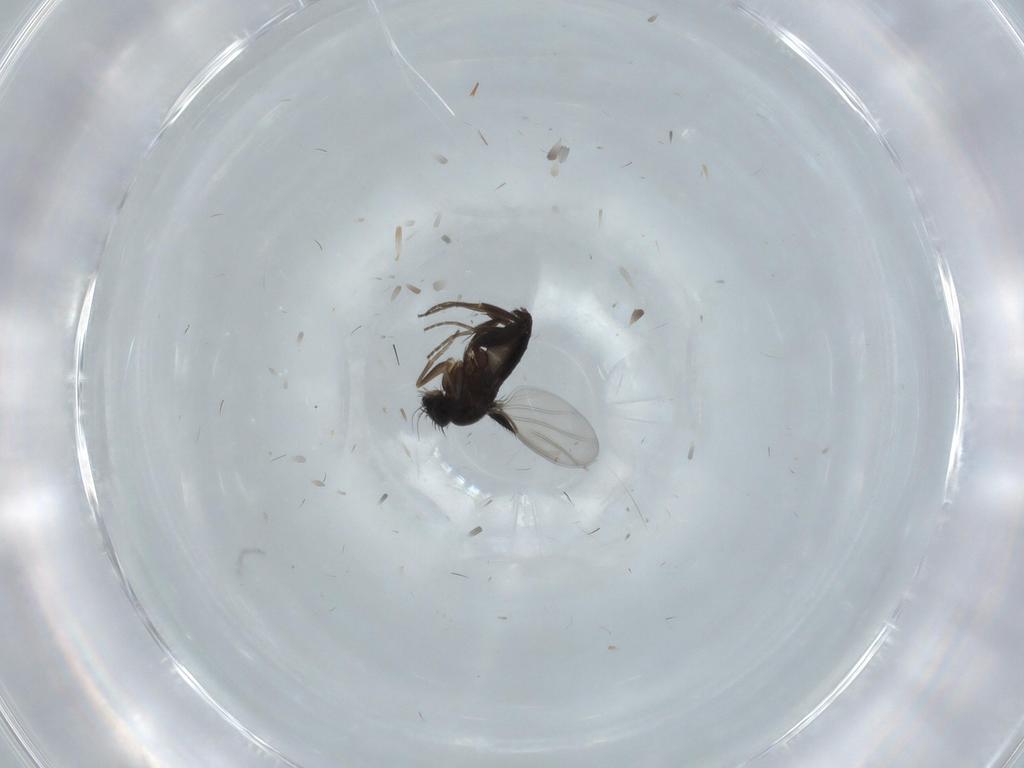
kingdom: Animalia
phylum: Arthropoda
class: Insecta
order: Diptera
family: Phoridae
